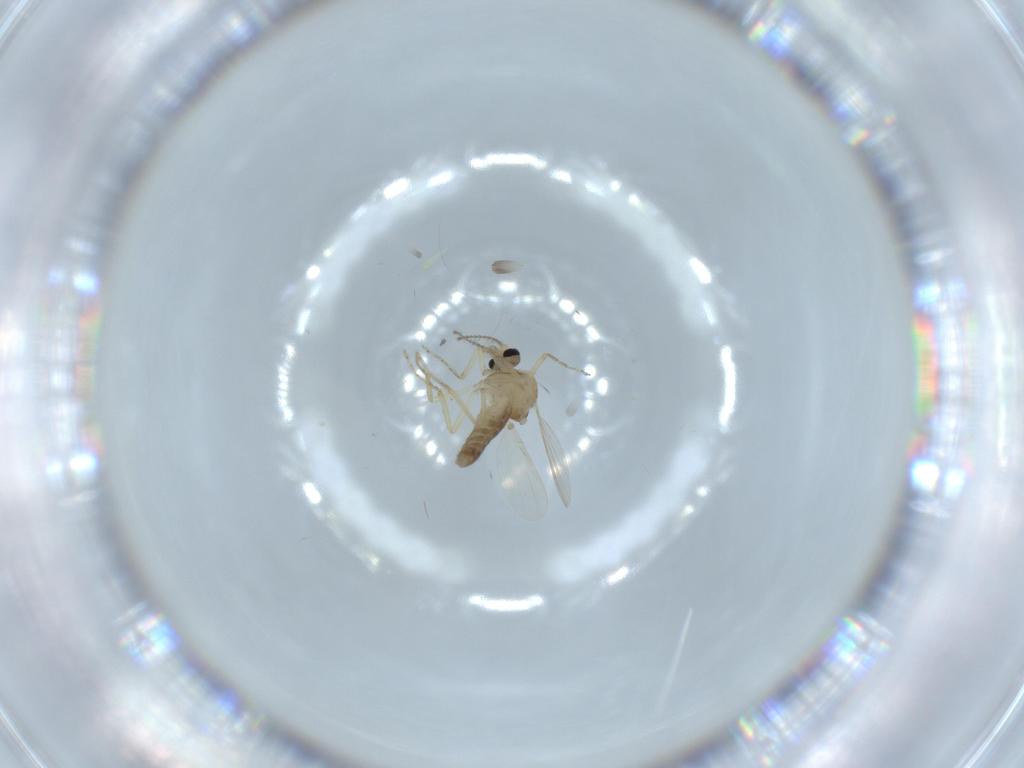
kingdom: Animalia
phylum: Arthropoda
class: Insecta
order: Diptera
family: Ceratopogonidae
